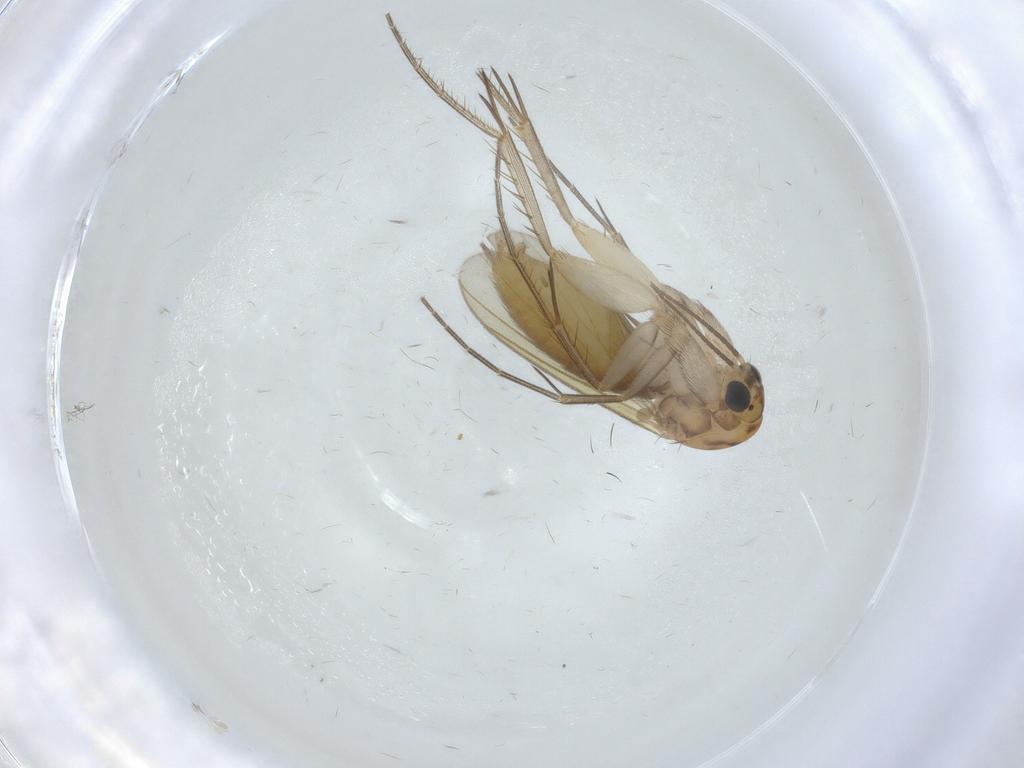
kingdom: Animalia
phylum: Arthropoda
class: Insecta
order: Diptera
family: Mycetophilidae
